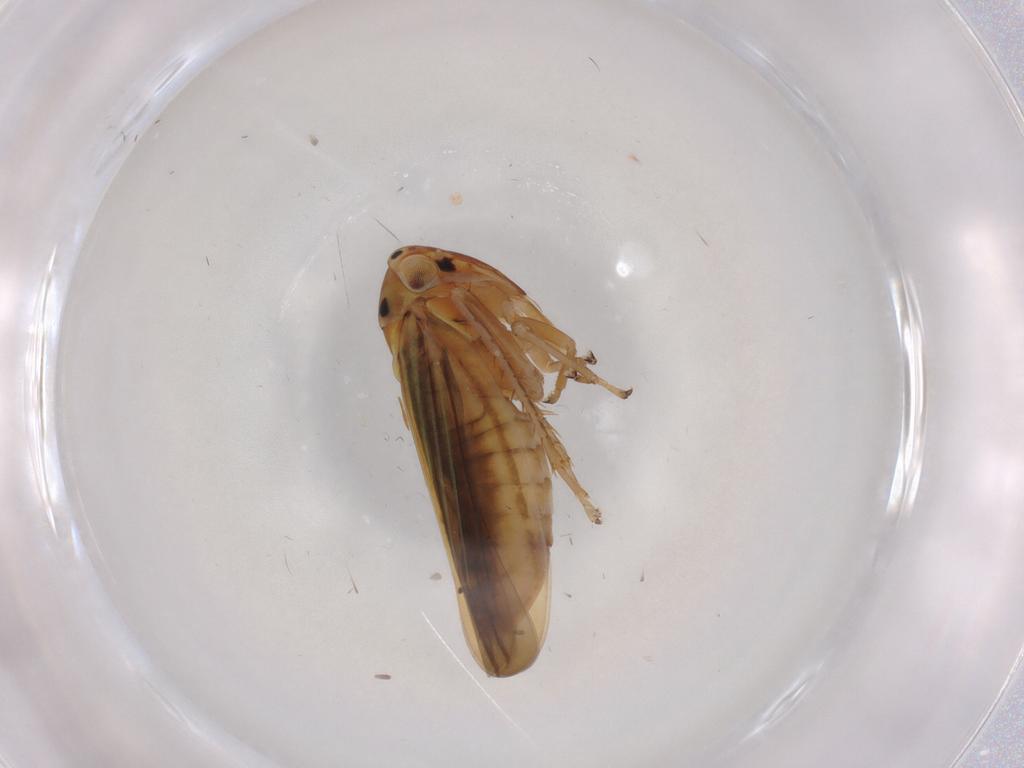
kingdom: Animalia
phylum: Arthropoda
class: Insecta
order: Hemiptera
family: Cicadellidae
